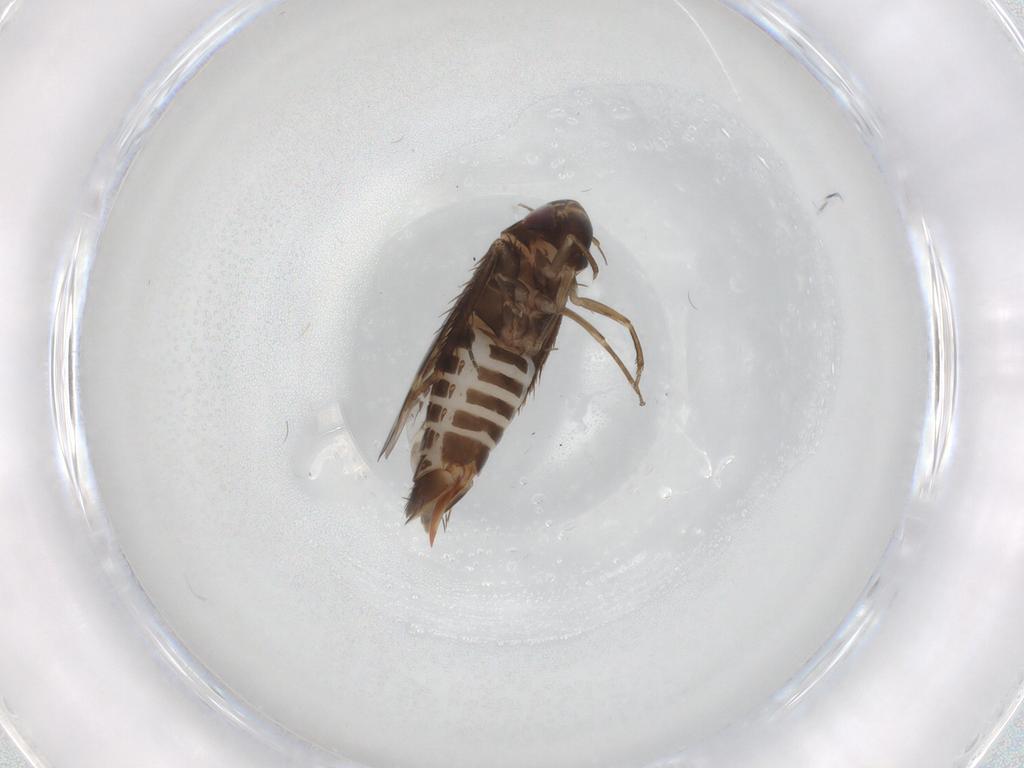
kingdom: Animalia
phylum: Arthropoda
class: Insecta
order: Hemiptera
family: Cicadellidae
